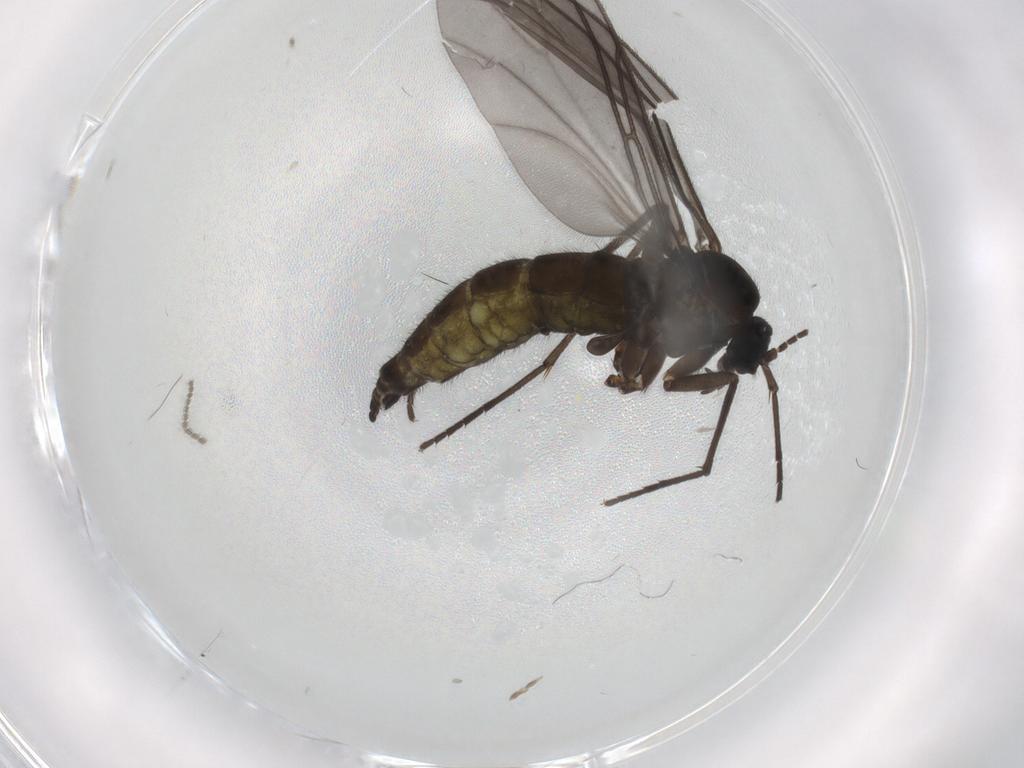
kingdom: Animalia
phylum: Arthropoda
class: Insecta
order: Diptera
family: Sciaridae
